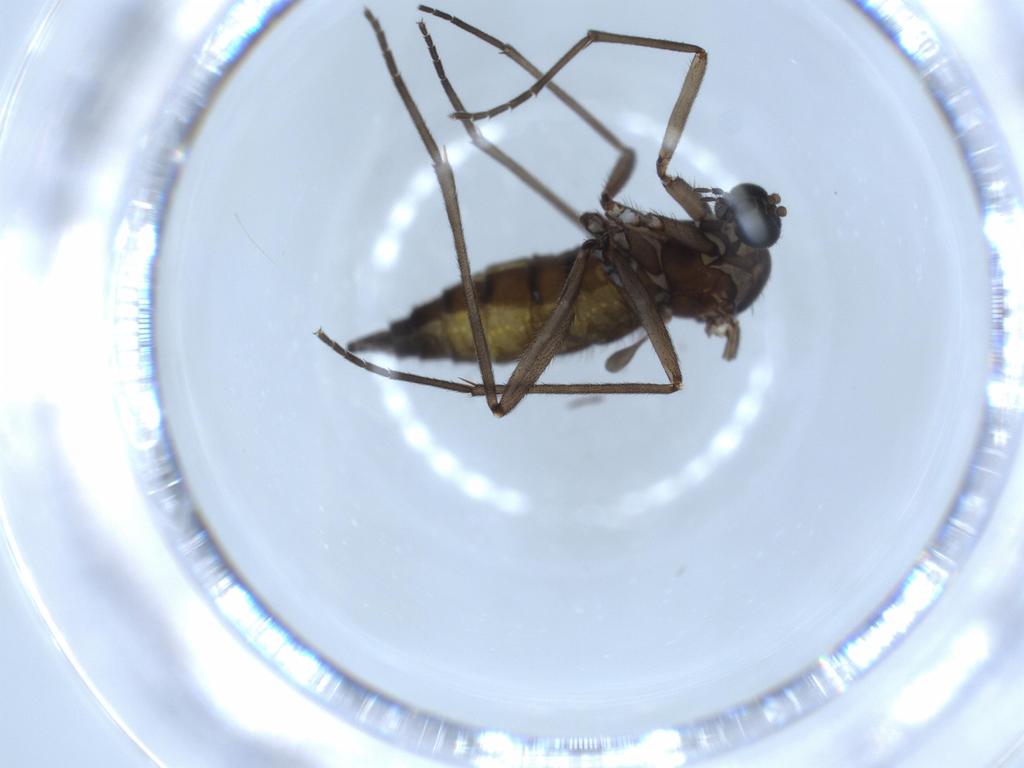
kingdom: Animalia
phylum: Arthropoda
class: Insecta
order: Diptera
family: Sciaridae
